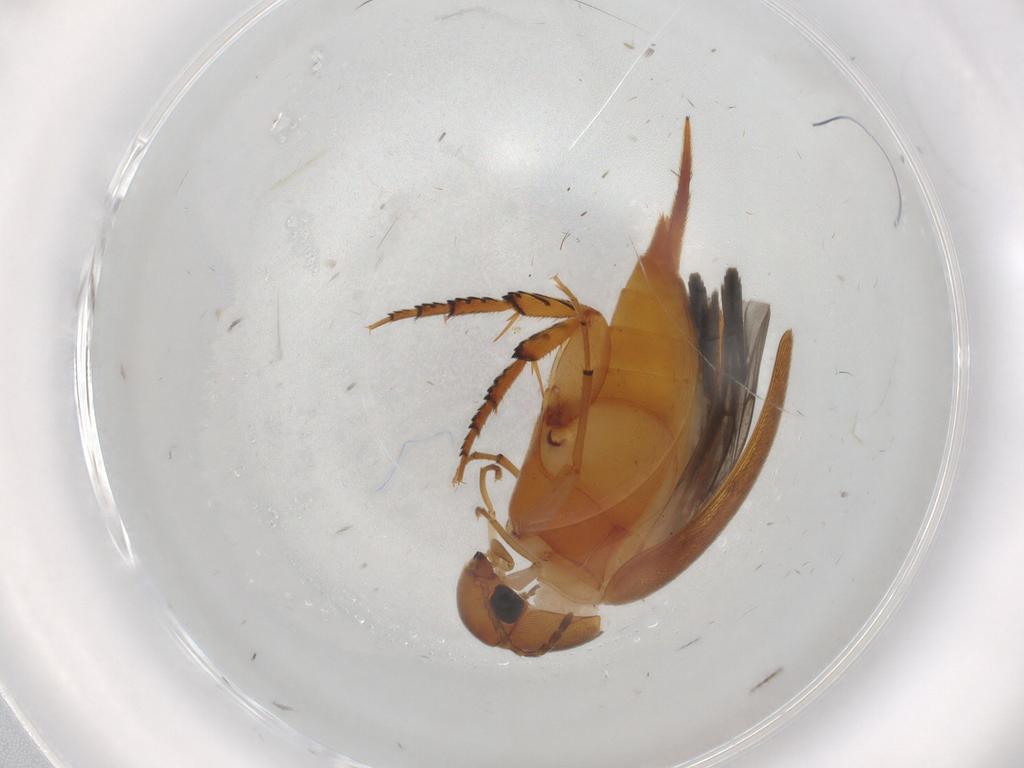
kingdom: Animalia
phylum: Arthropoda
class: Insecta
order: Coleoptera
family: Mordellidae
